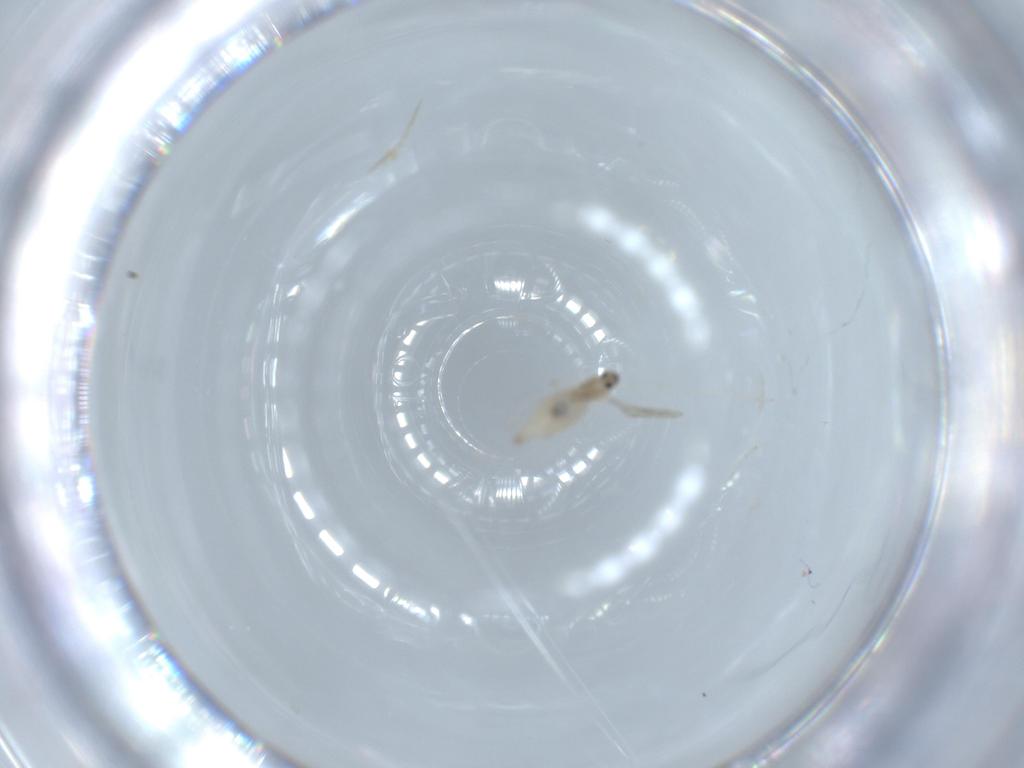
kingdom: Animalia
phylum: Arthropoda
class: Insecta
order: Diptera
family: Cecidomyiidae
